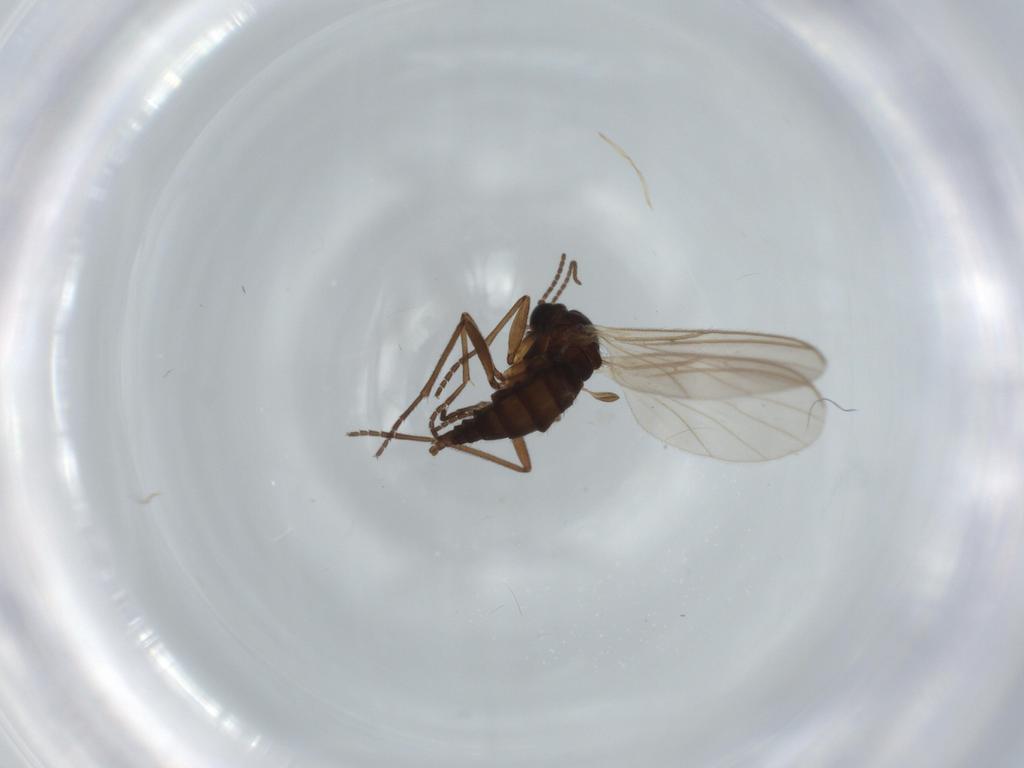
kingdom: Animalia
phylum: Arthropoda
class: Insecta
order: Diptera
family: Sciaridae
